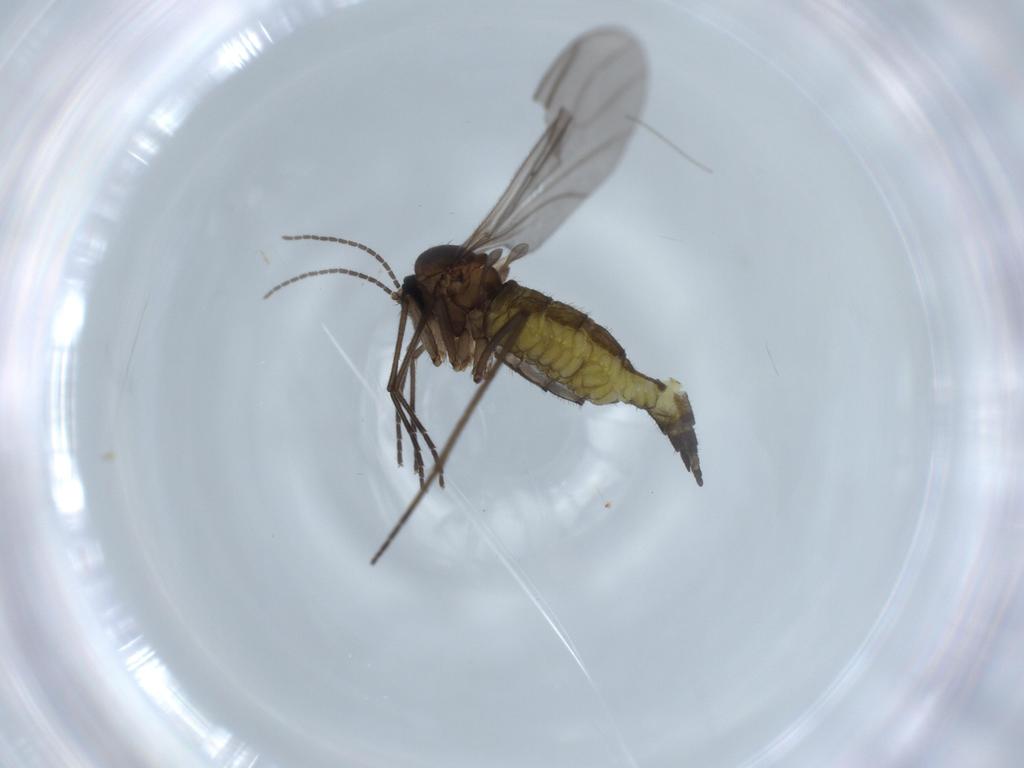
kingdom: Animalia
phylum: Arthropoda
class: Insecta
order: Diptera
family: Sciaridae
